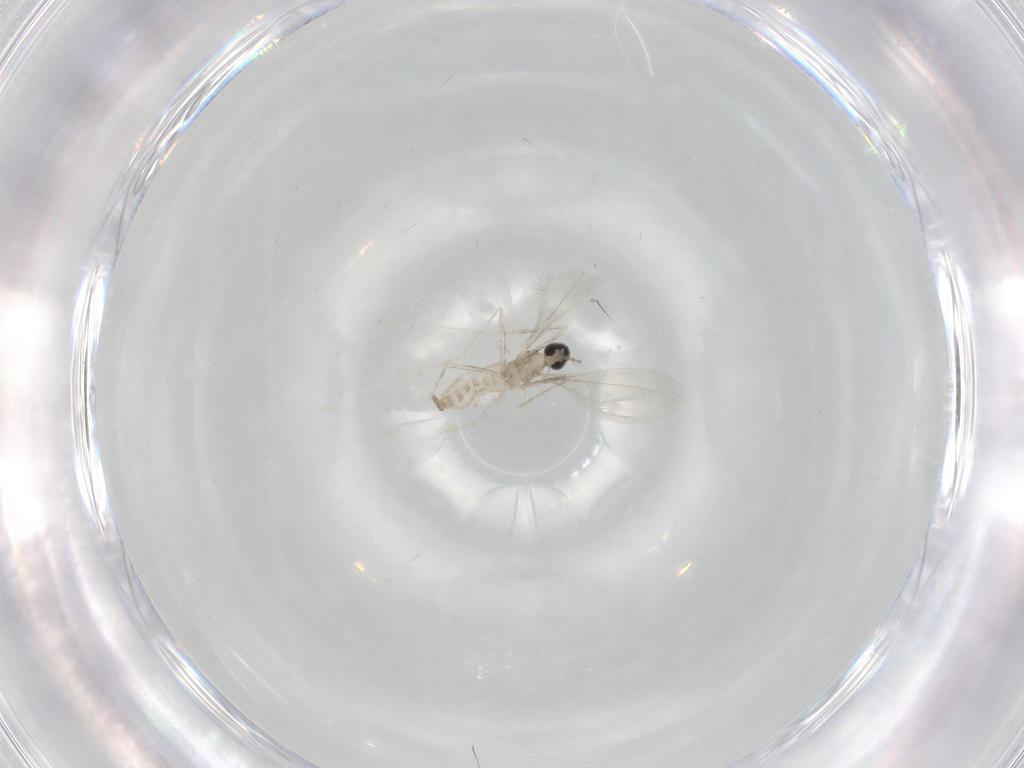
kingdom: Animalia
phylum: Arthropoda
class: Insecta
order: Diptera
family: Cecidomyiidae
